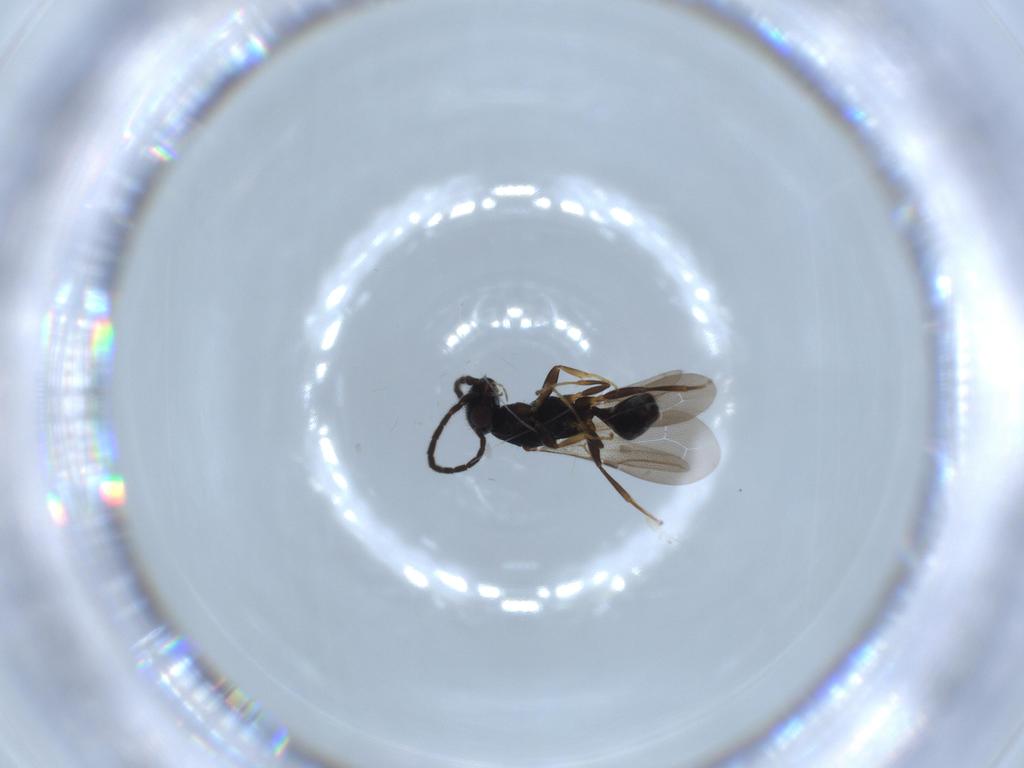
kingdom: Animalia
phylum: Arthropoda
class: Insecta
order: Hymenoptera
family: Bethylidae
